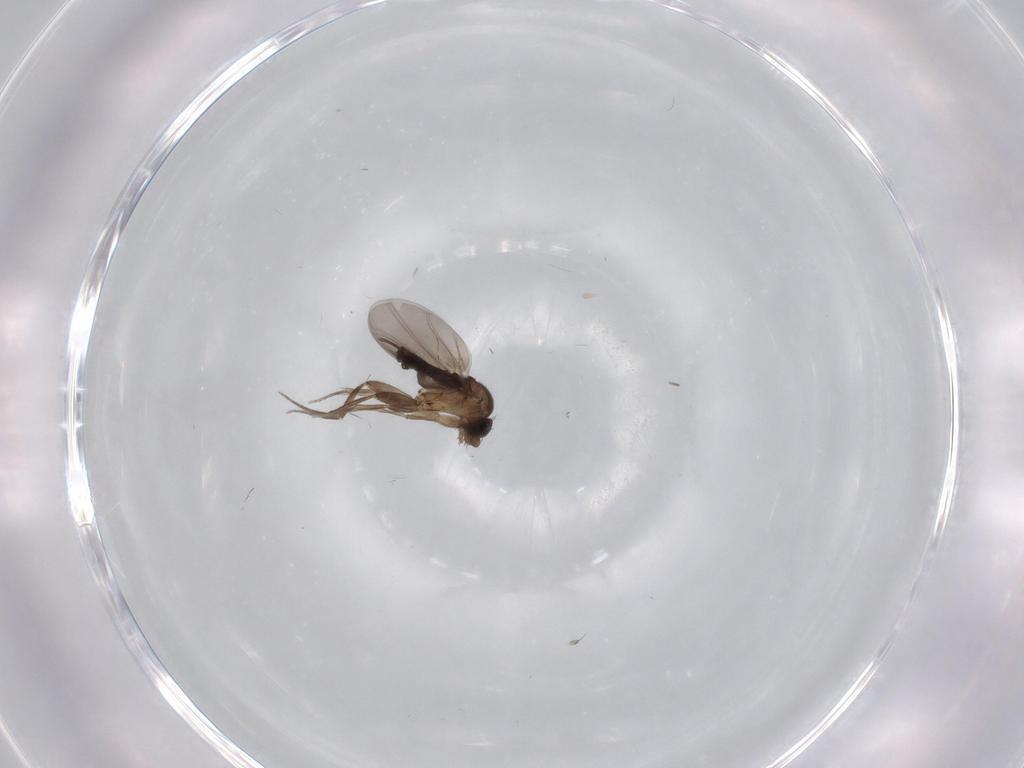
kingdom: Animalia
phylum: Arthropoda
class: Insecta
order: Diptera
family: Phoridae
